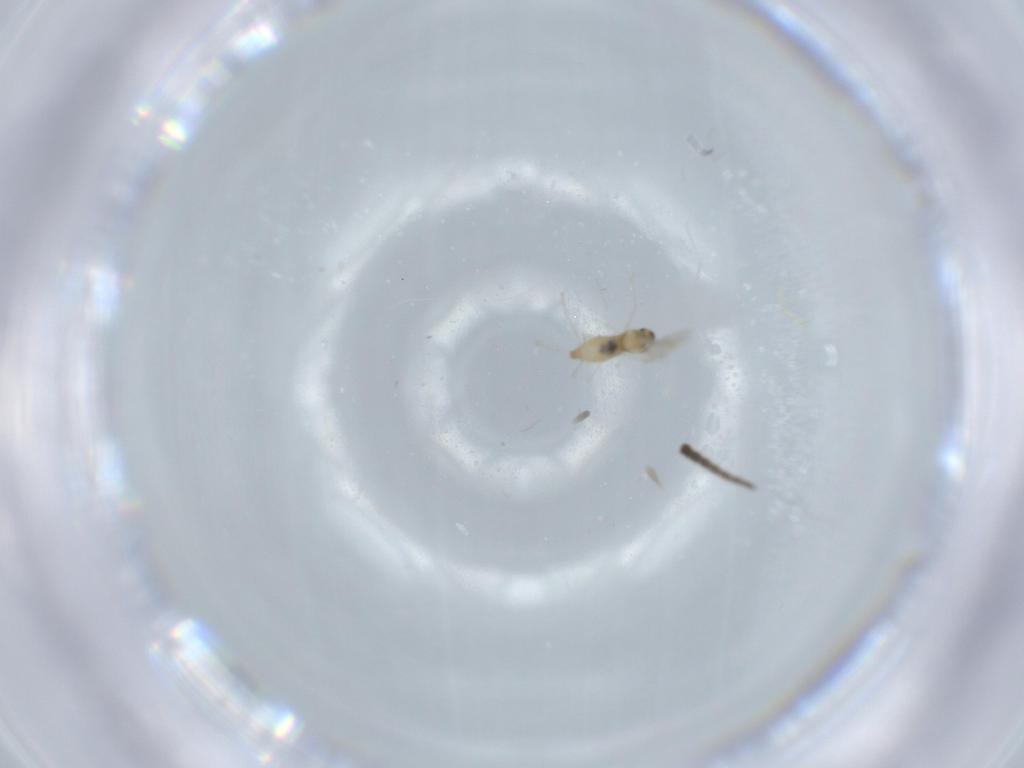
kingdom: Animalia
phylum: Arthropoda
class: Insecta
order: Diptera
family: Mycetophilidae
